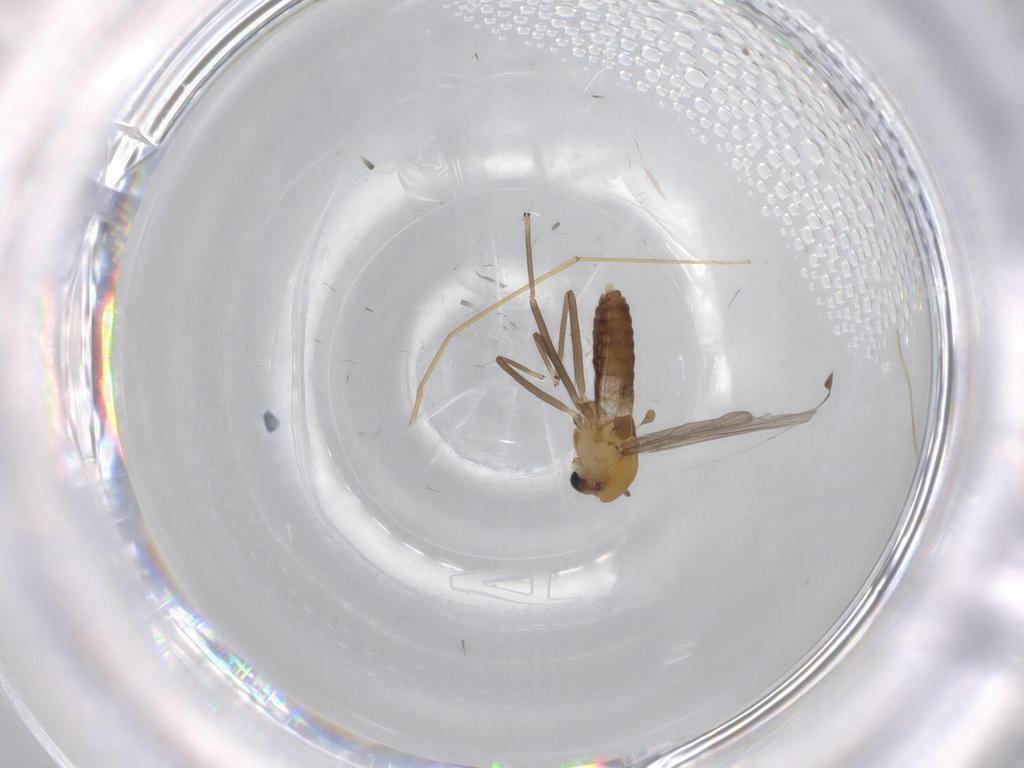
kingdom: Animalia
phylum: Arthropoda
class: Insecta
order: Diptera
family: Chironomidae
